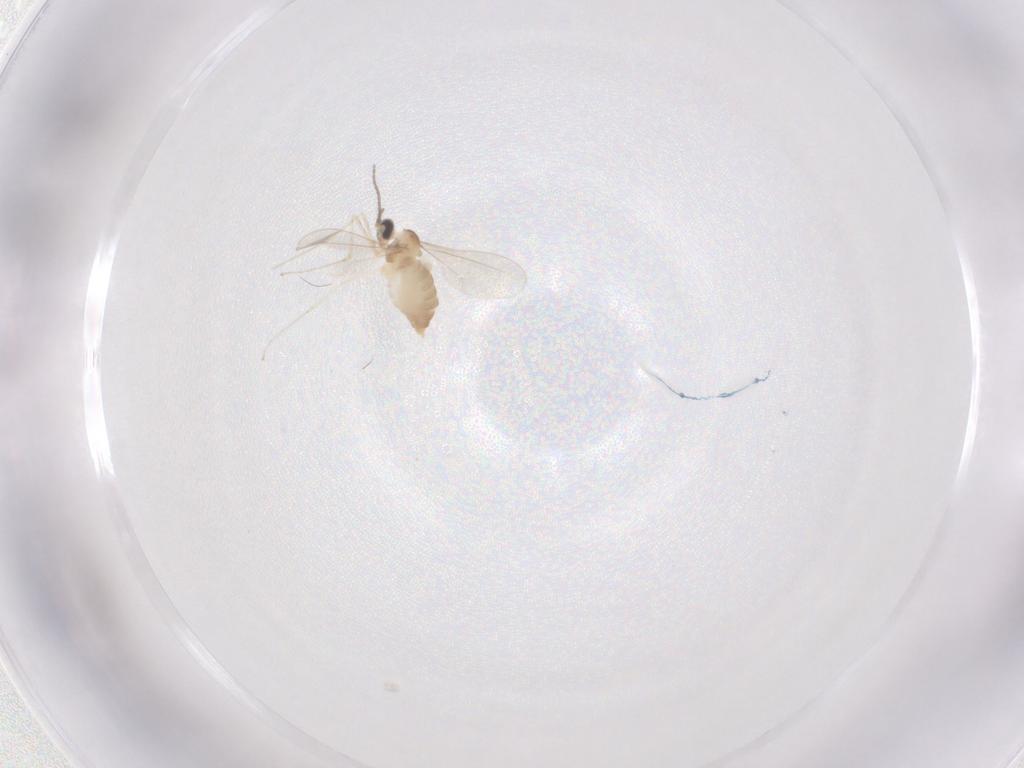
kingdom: Animalia
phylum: Arthropoda
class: Insecta
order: Diptera
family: Cecidomyiidae
